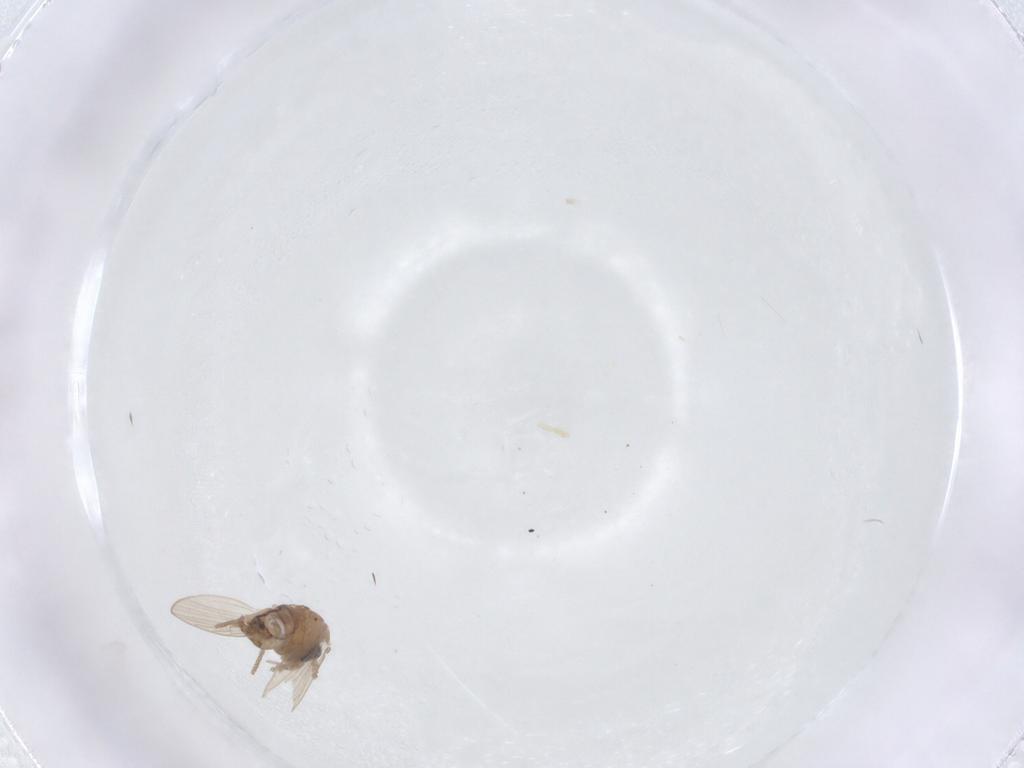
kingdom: Animalia
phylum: Arthropoda
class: Insecta
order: Diptera
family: Psychodidae
